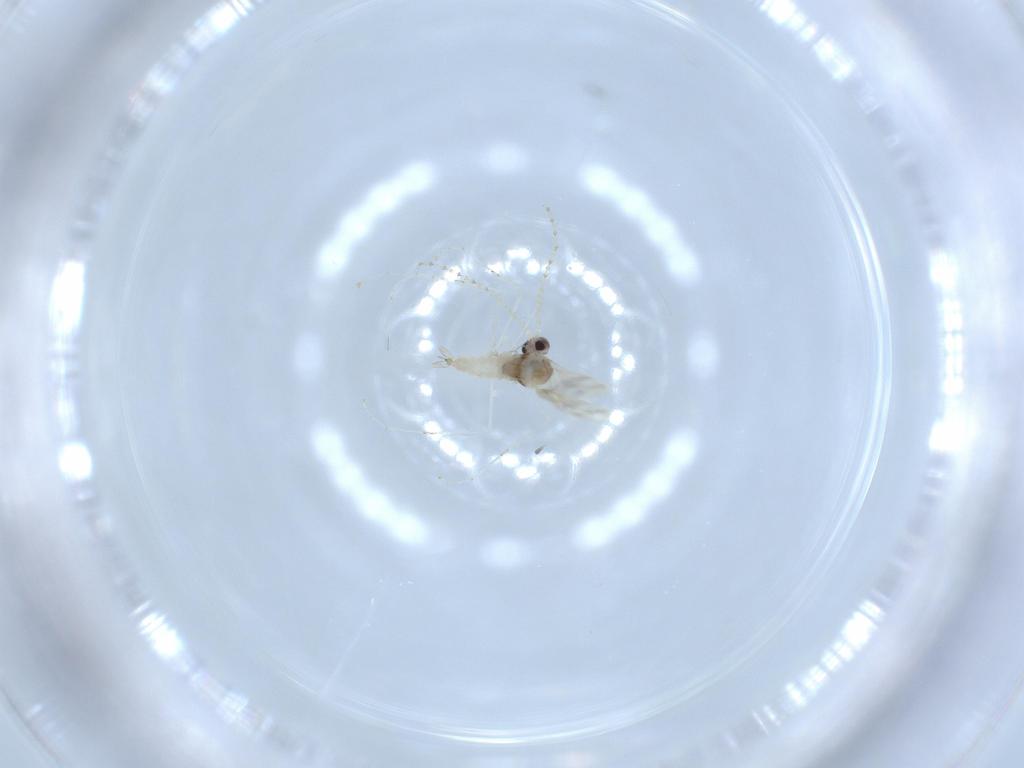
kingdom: Animalia
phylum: Arthropoda
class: Insecta
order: Diptera
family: Cecidomyiidae
